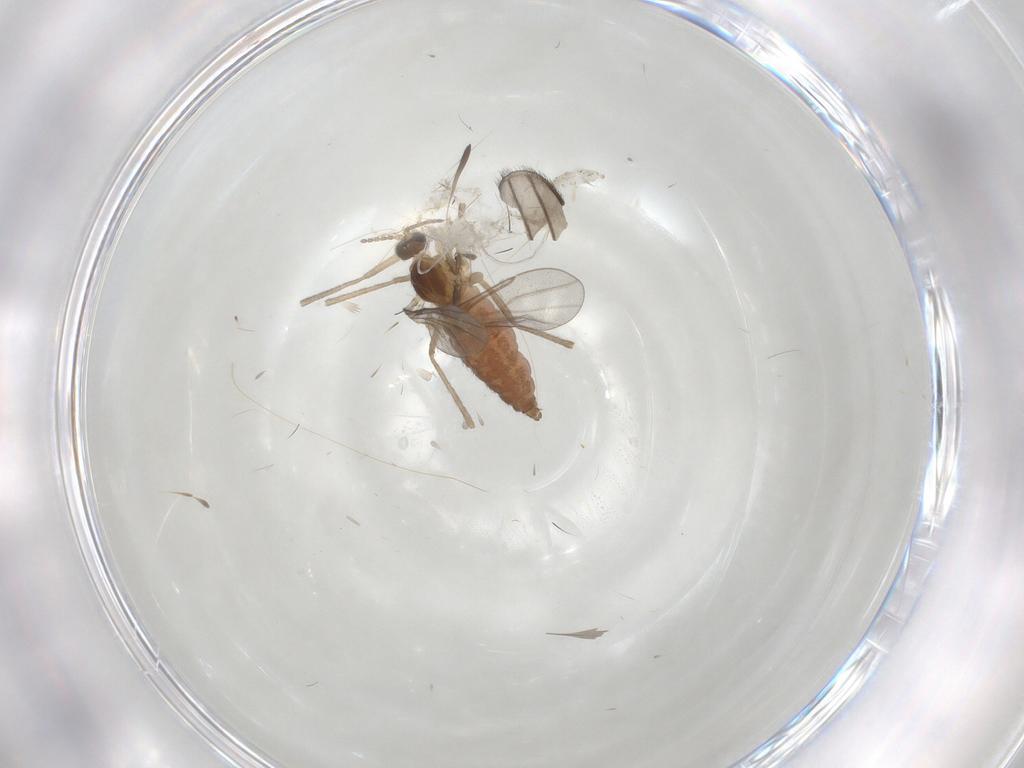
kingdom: Animalia
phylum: Arthropoda
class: Insecta
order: Diptera
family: Cecidomyiidae
